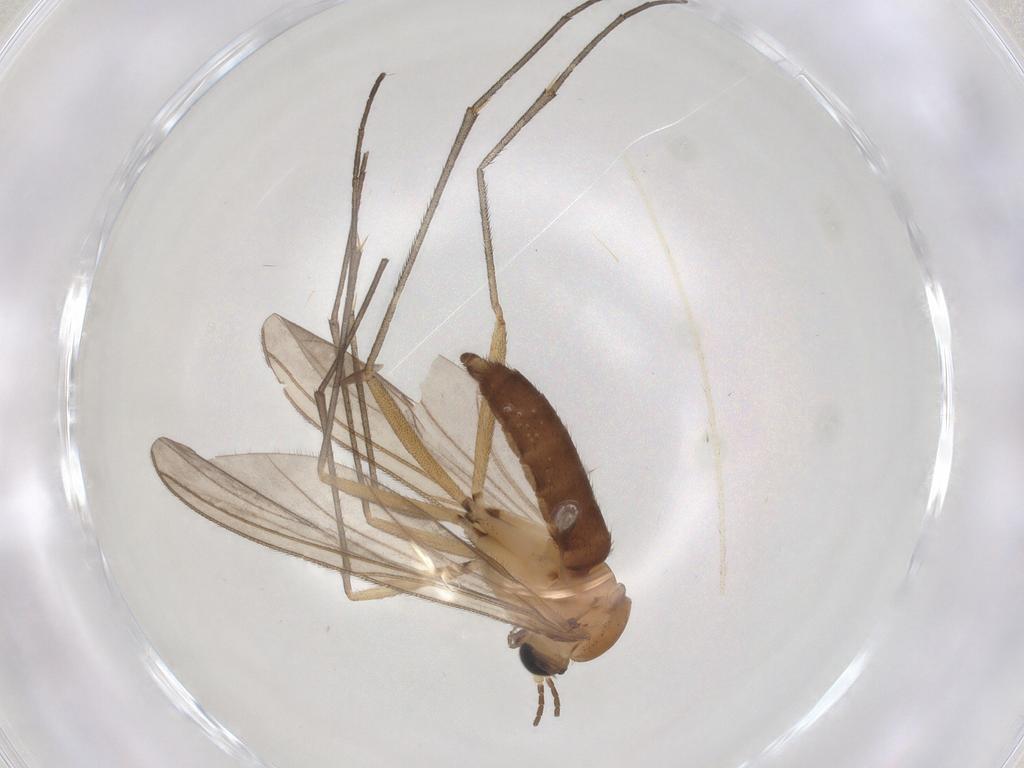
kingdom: Animalia
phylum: Arthropoda
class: Insecta
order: Diptera
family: Sciaridae
